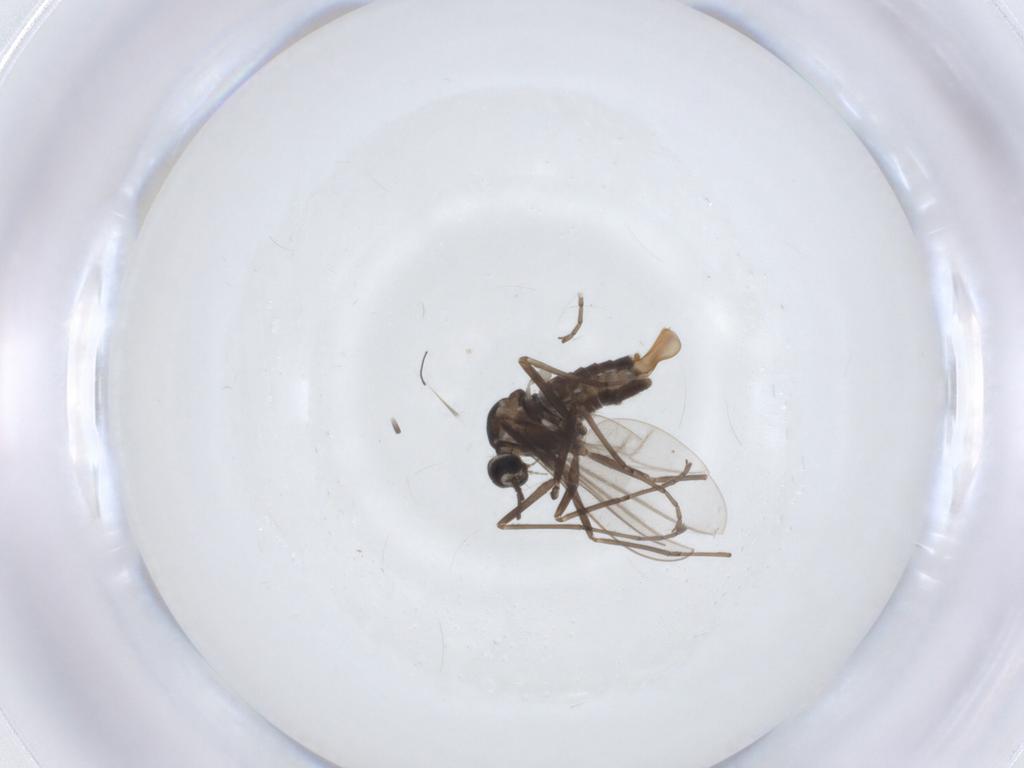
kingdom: Animalia
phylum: Arthropoda
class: Insecta
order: Diptera
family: Cecidomyiidae
